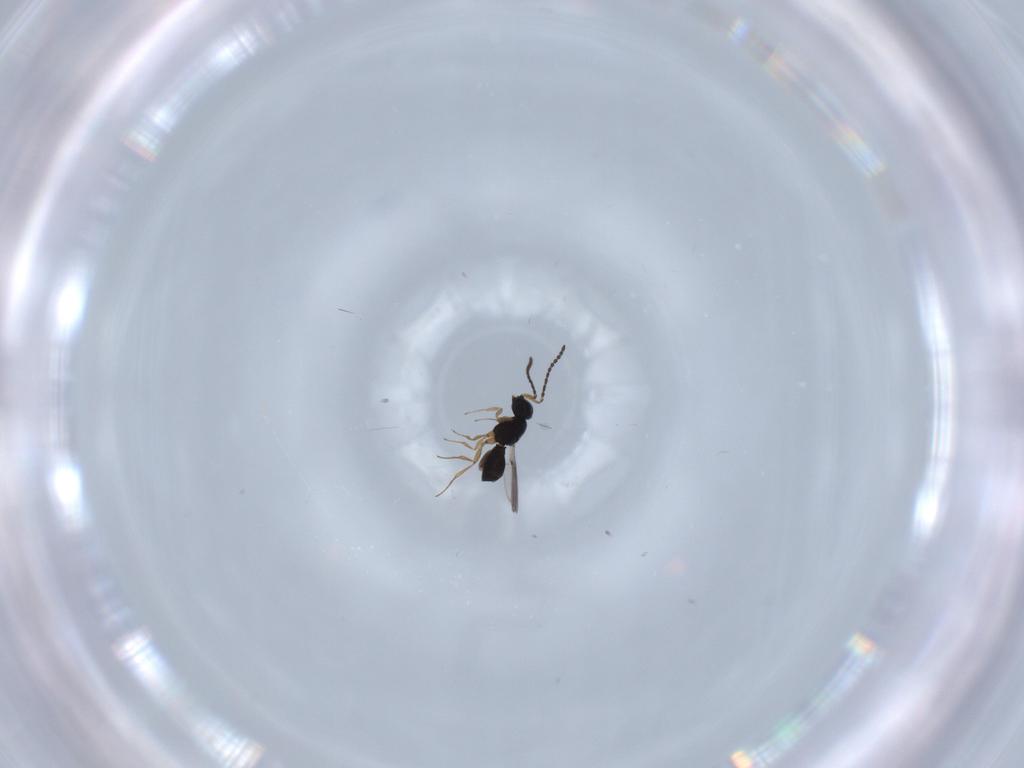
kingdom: Animalia
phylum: Arthropoda
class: Insecta
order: Hymenoptera
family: Scelionidae
